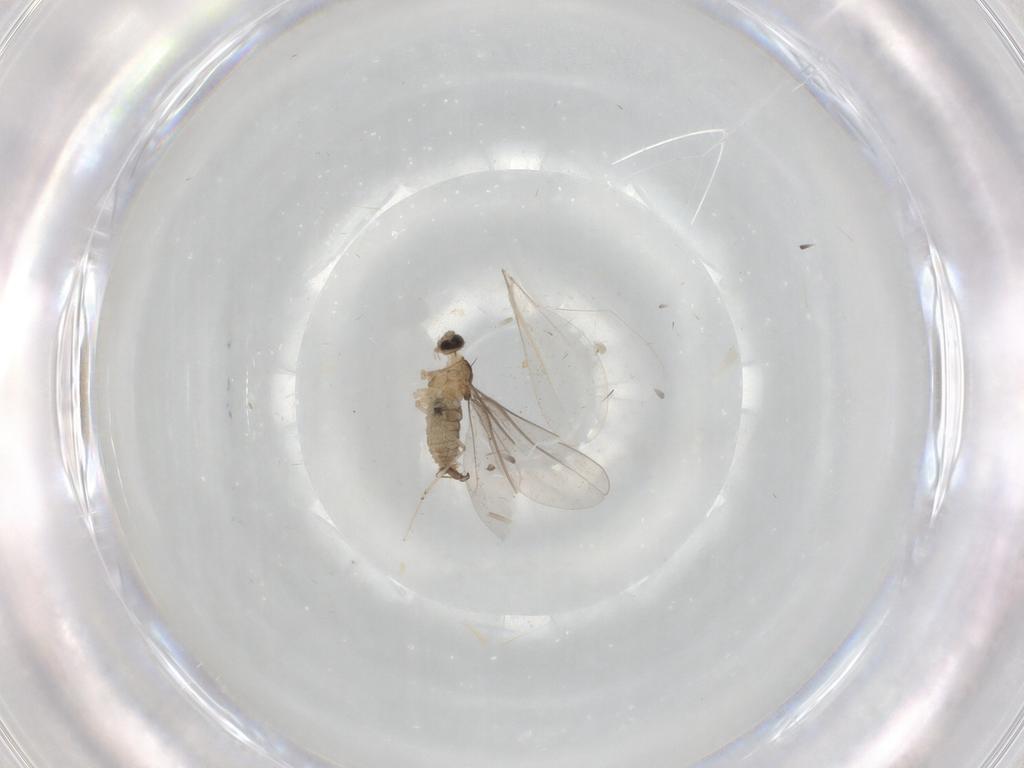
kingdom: Animalia
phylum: Arthropoda
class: Insecta
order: Diptera
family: Cecidomyiidae
